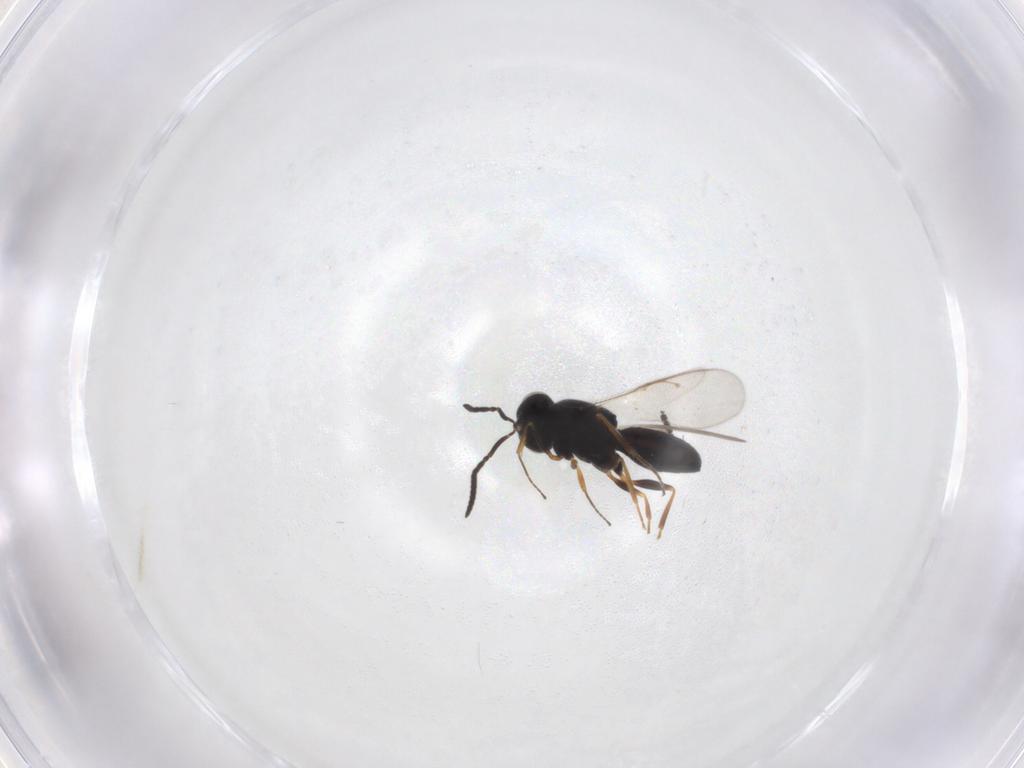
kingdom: Animalia
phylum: Arthropoda
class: Insecta
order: Hymenoptera
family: Scelionidae
